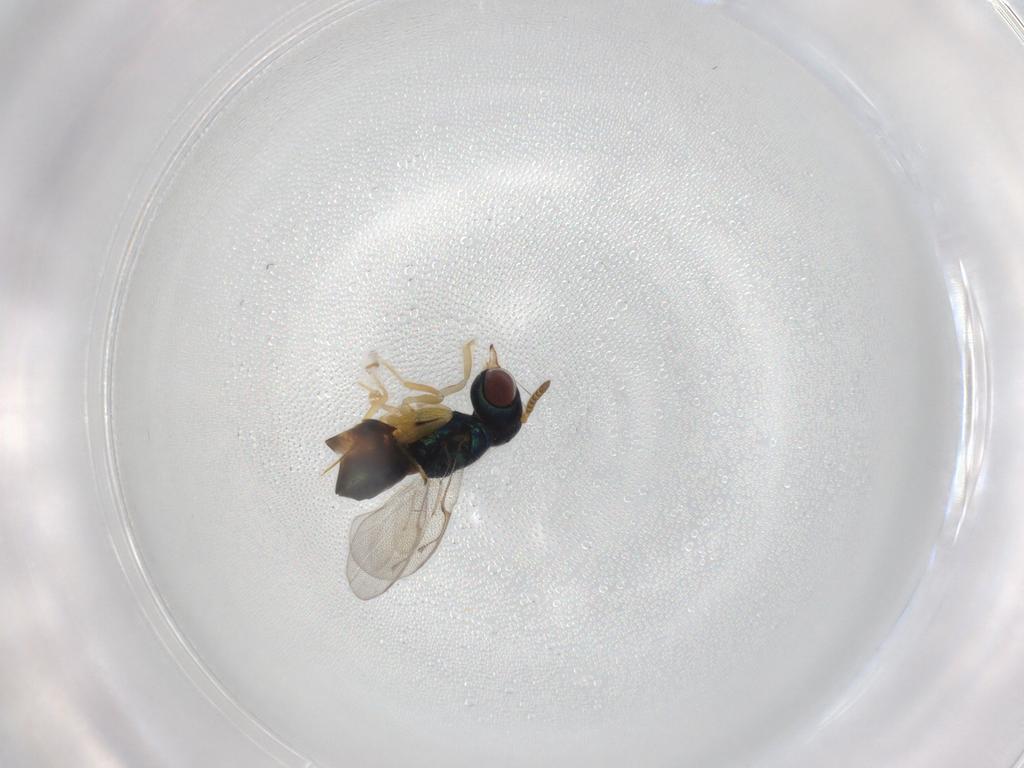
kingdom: Animalia
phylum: Arthropoda
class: Insecta
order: Hymenoptera
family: Pteromalidae
